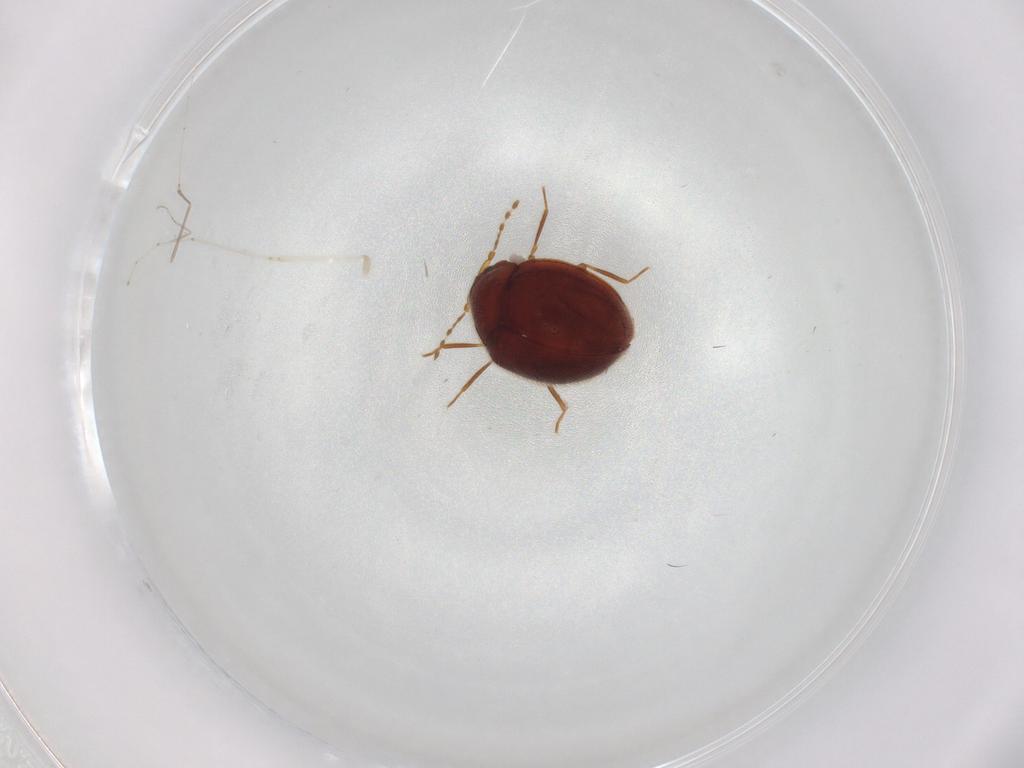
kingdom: Animalia
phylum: Arthropoda
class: Insecta
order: Coleoptera
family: Anamorphidae
